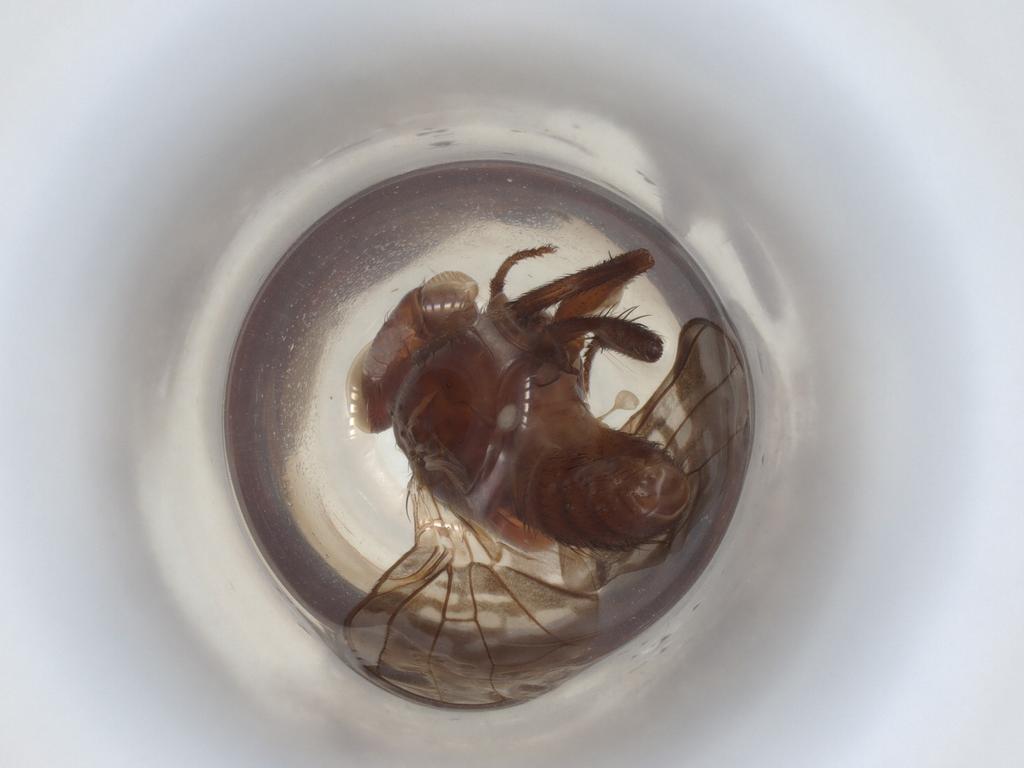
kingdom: Animalia
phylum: Arthropoda
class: Insecta
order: Lepidoptera
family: Crambidae
